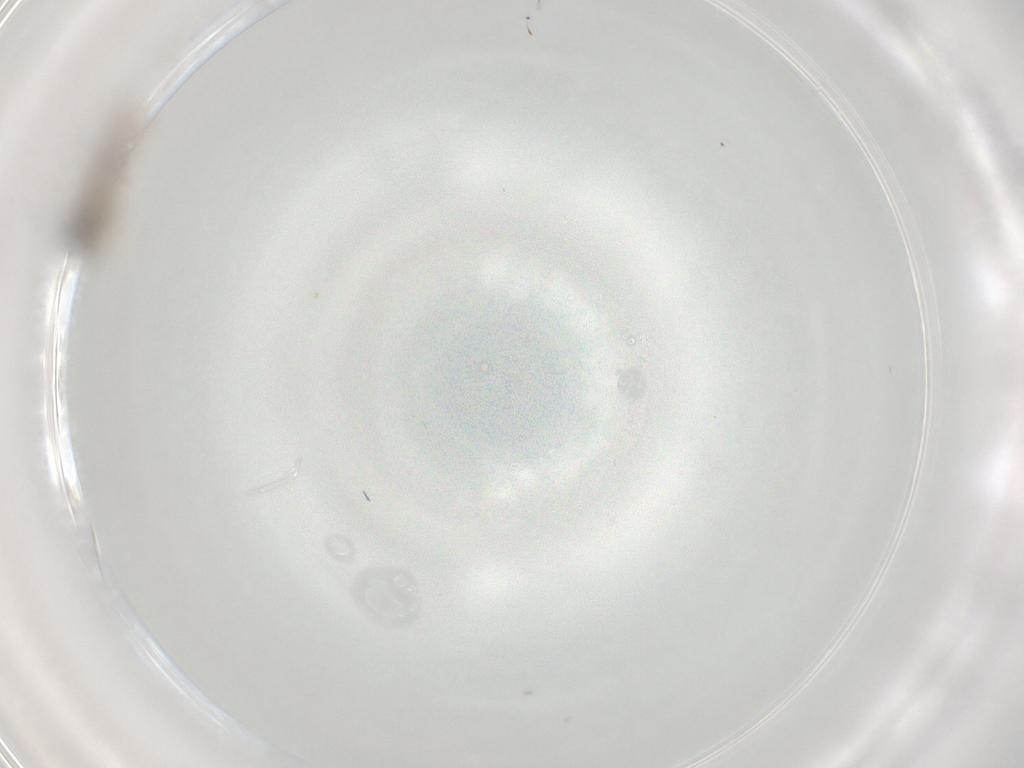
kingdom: Animalia
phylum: Arthropoda
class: Insecta
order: Diptera
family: Cecidomyiidae
